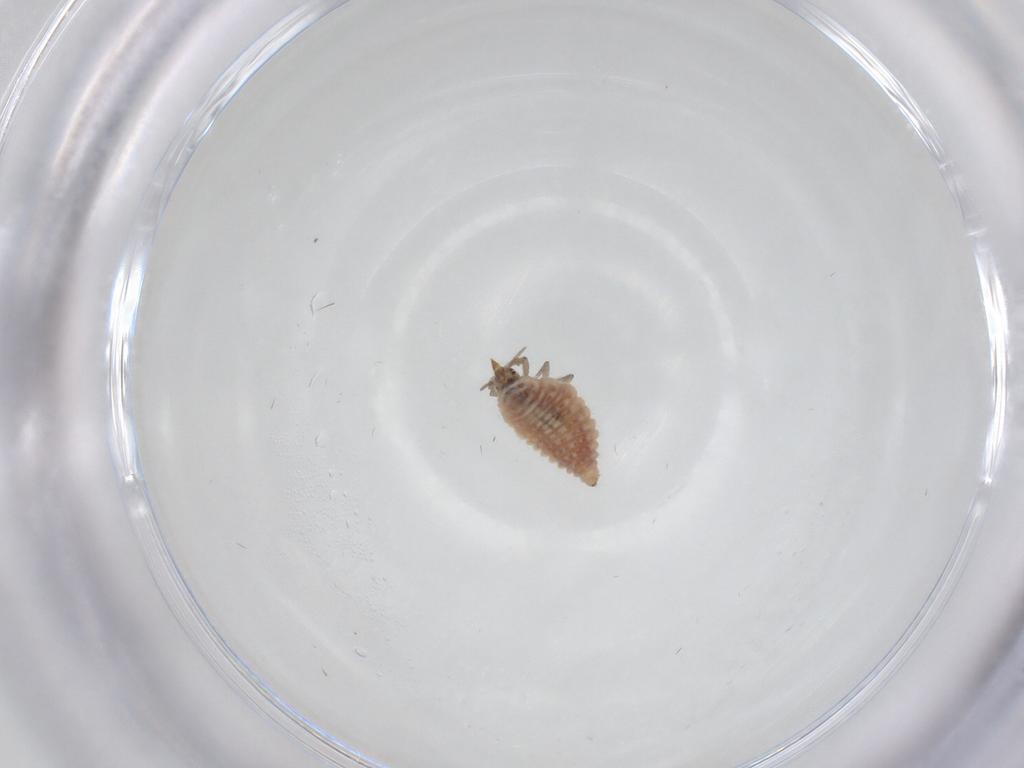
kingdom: Animalia
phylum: Arthropoda
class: Insecta
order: Neuroptera
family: Coniopterygidae
